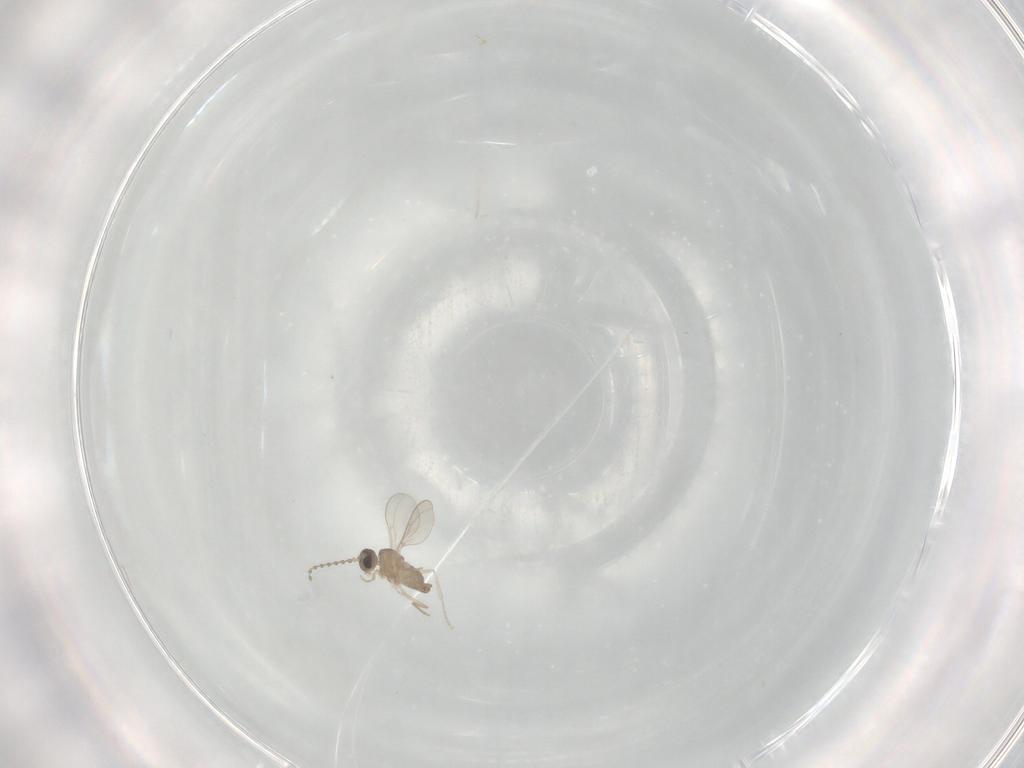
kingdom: Animalia
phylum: Arthropoda
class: Insecta
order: Diptera
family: Cecidomyiidae
